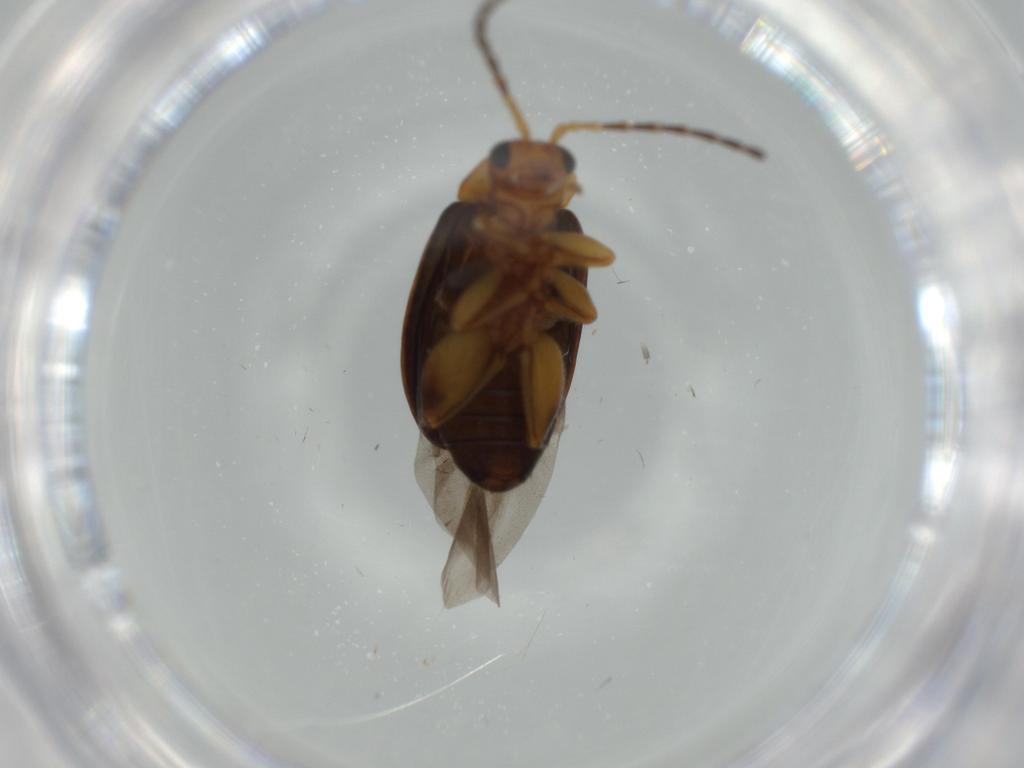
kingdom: Animalia
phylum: Arthropoda
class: Insecta
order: Coleoptera
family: Chrysomelidae
